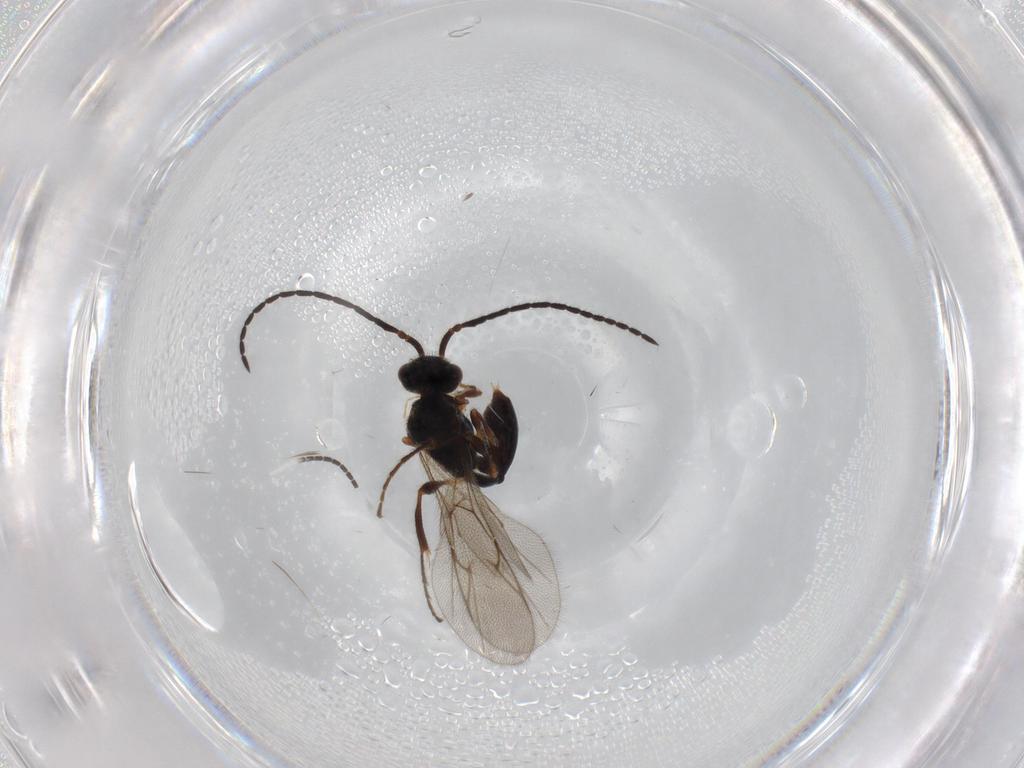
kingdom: Animalia
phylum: Arthropoda
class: Insecta
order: Hymenoptera
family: Diapriidae
